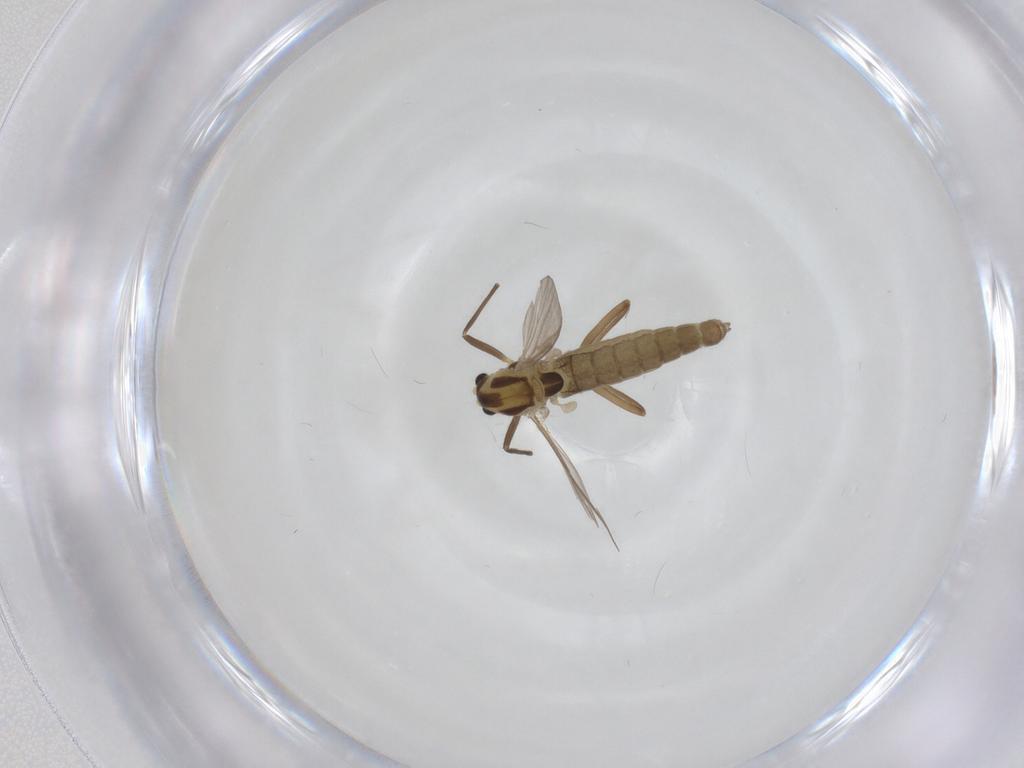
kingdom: Animalia
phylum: Arthropoda
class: Insecta
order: Diptera
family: Chironomidae
